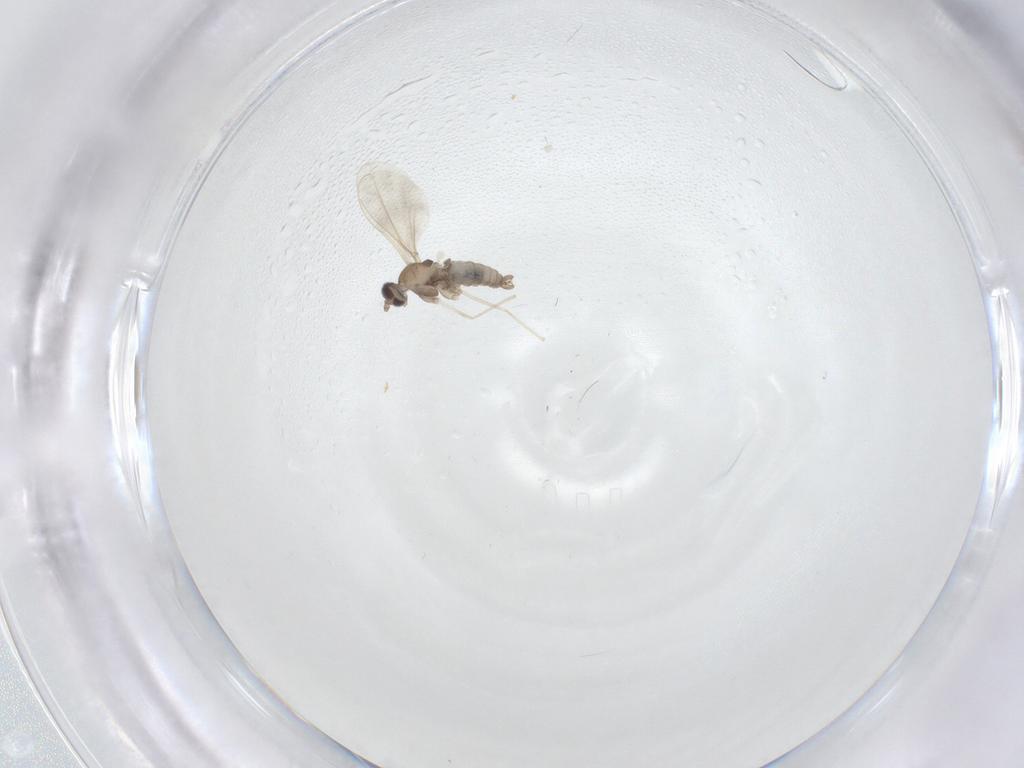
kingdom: Animalia
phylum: Arthropoda
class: Insecta
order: Diptera
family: Cecidomyiidae
